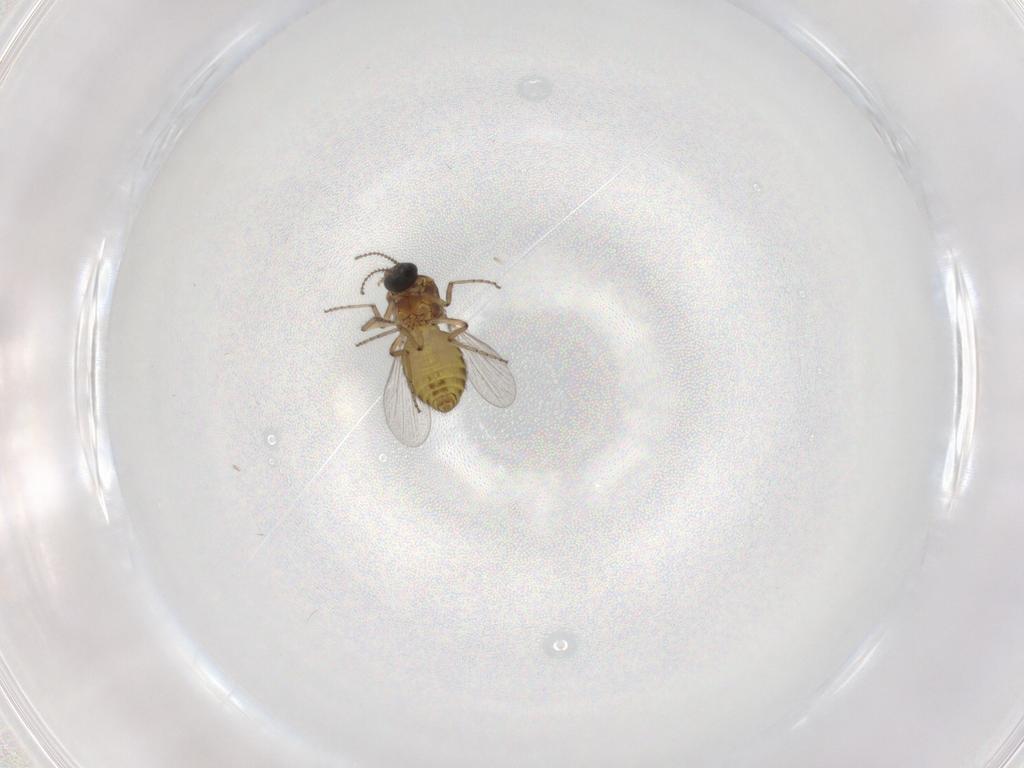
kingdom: Animalia
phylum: Arthropoda
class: Insecta
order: Diptera
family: Ceratopogonidae
